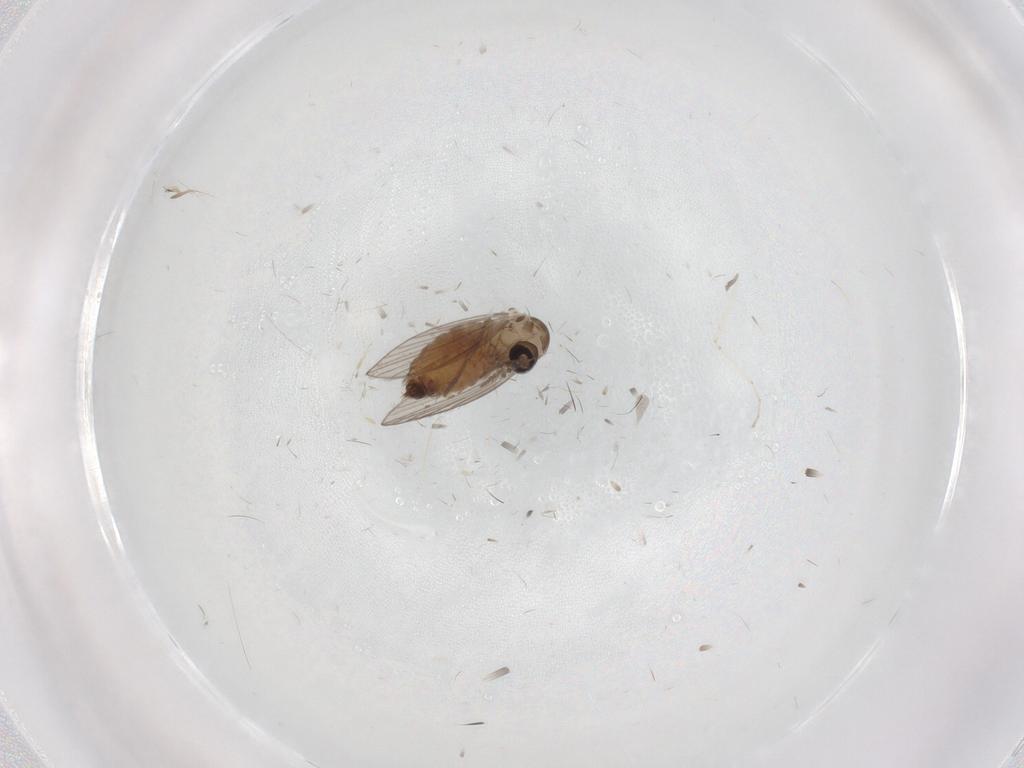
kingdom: Animalia
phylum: Arthropoda
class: Insecta
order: Diptera
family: Psychodidae
